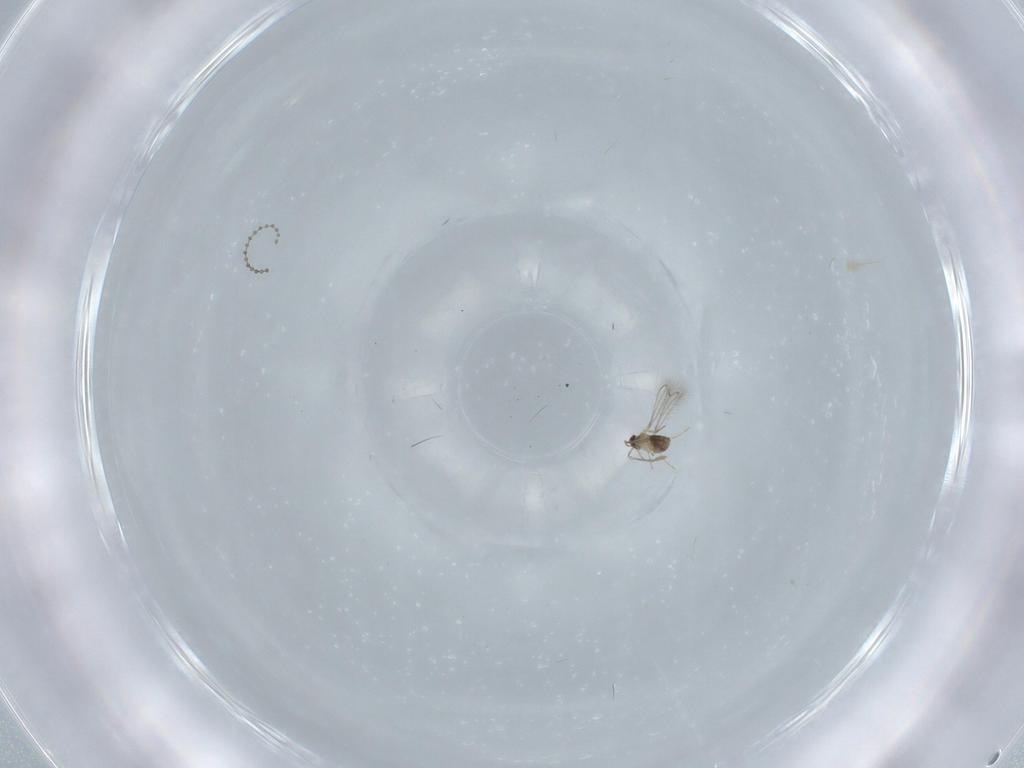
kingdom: Animalia
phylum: Arthropoda
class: Insecta
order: Hymenoptera
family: Mymaridae
